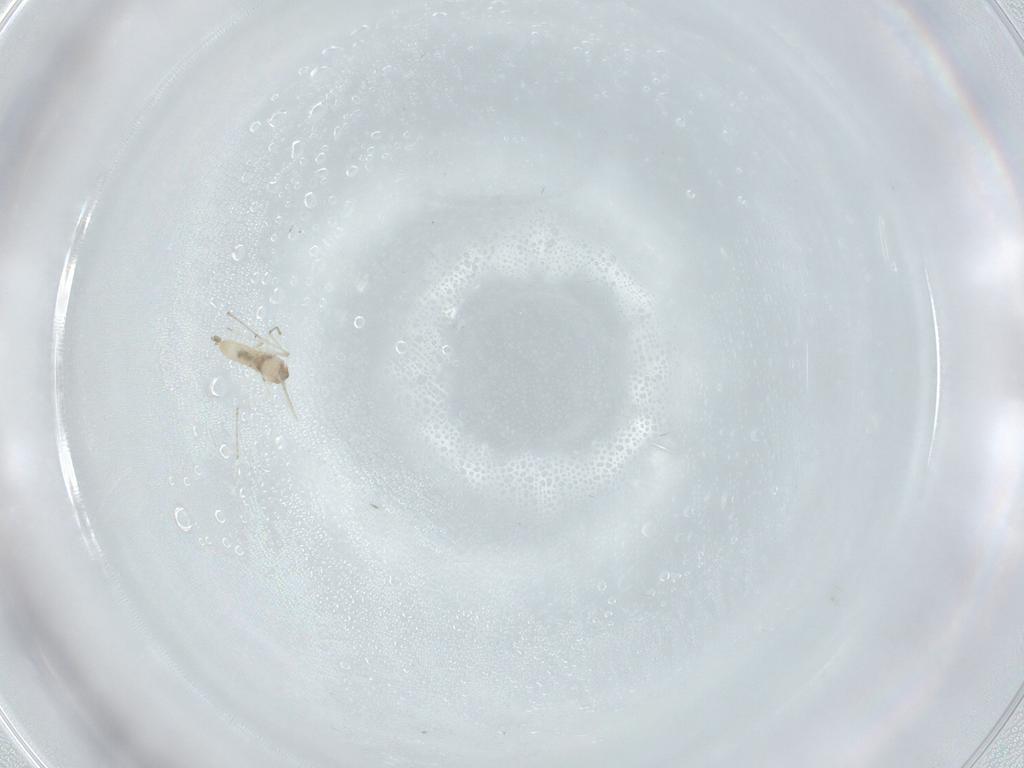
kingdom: Animalia
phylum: Arthropoda
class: Insecta
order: Diptera
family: Cecidomyiidae
